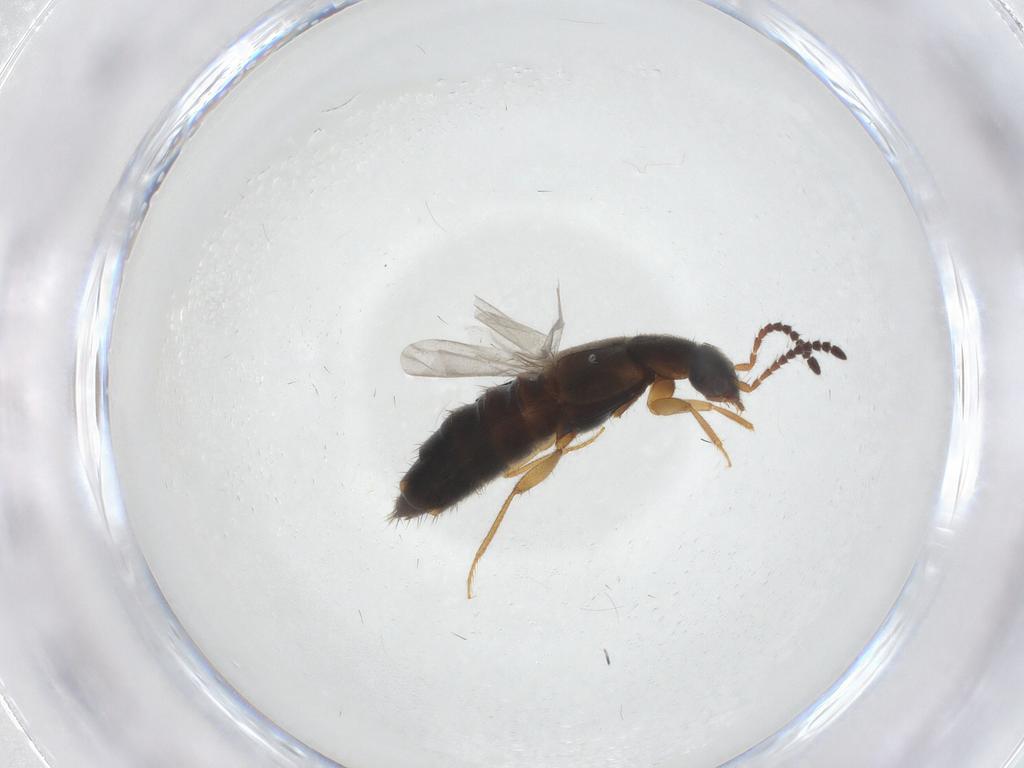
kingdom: Animalia
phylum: Arthropoda
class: Insecta
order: Coleoptera
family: Staphylinidae
